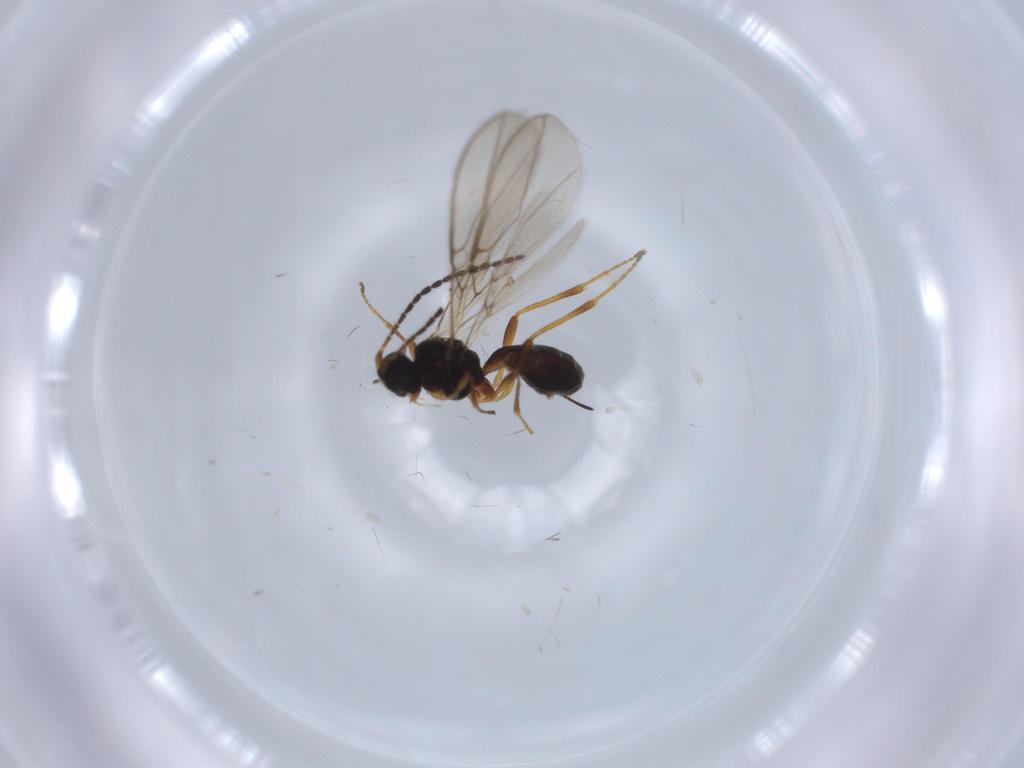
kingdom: Animalia
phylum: Arthropoda
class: Insecta
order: Hymenoptera
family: Braconidae
